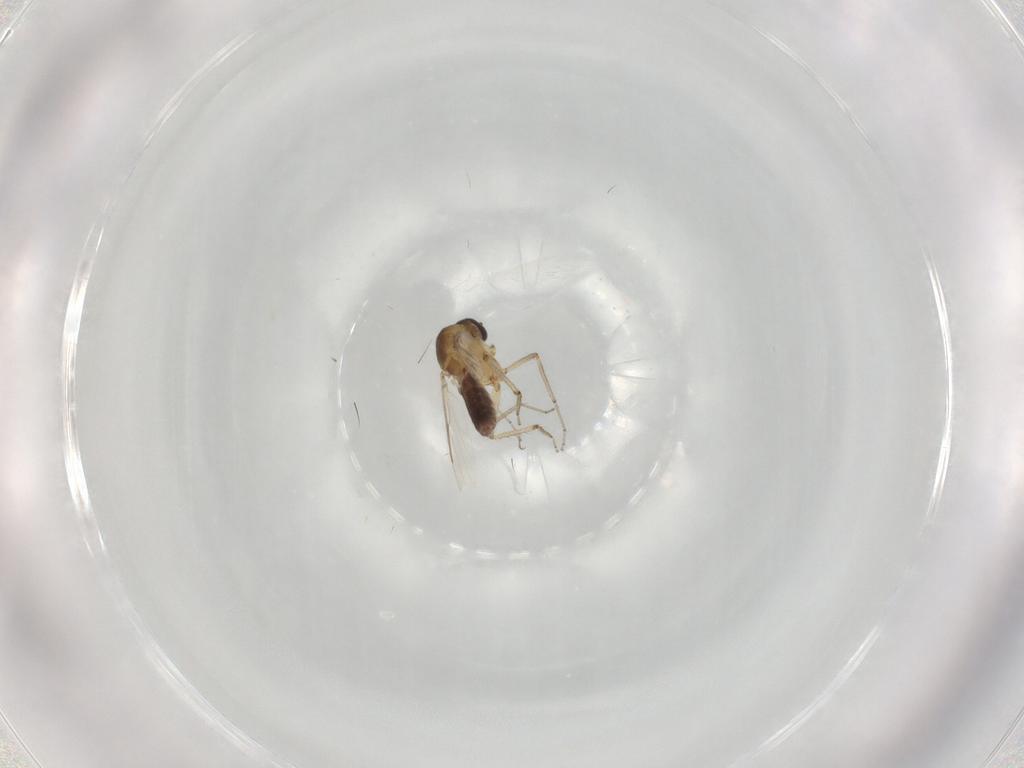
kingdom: Animalia
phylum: Arthropoda
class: Insecta
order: Diptera
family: Ceratopogonidae
